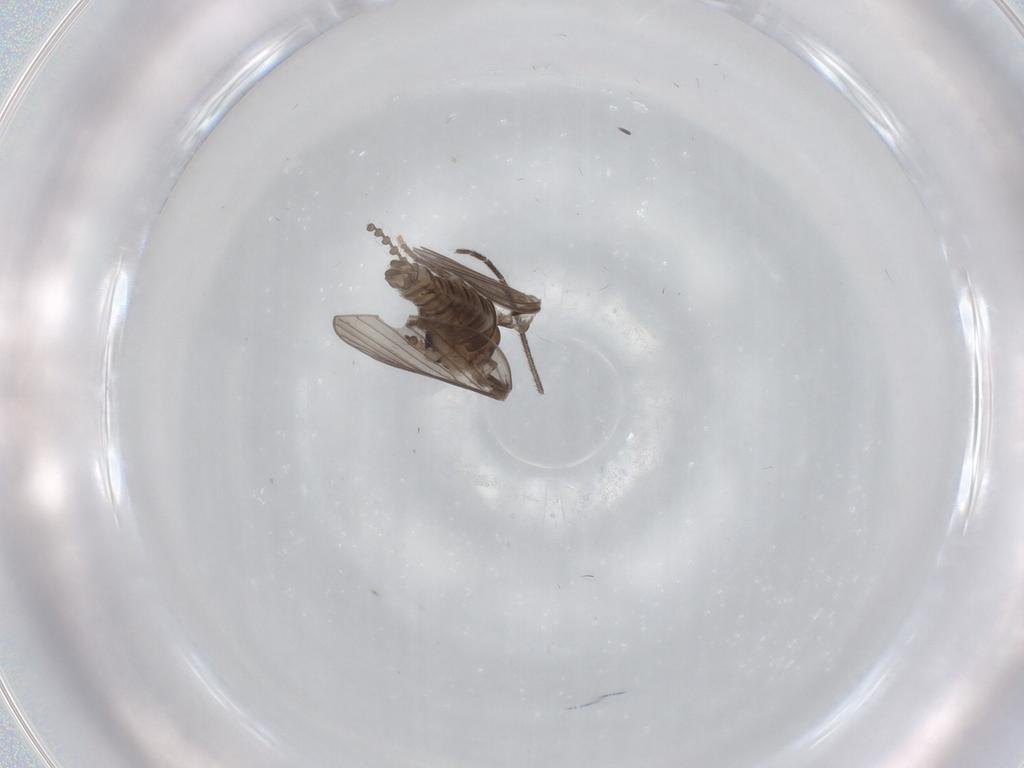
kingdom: Animalia
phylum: Arthropoda
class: Insecta
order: Diptera
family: Psychodidae
